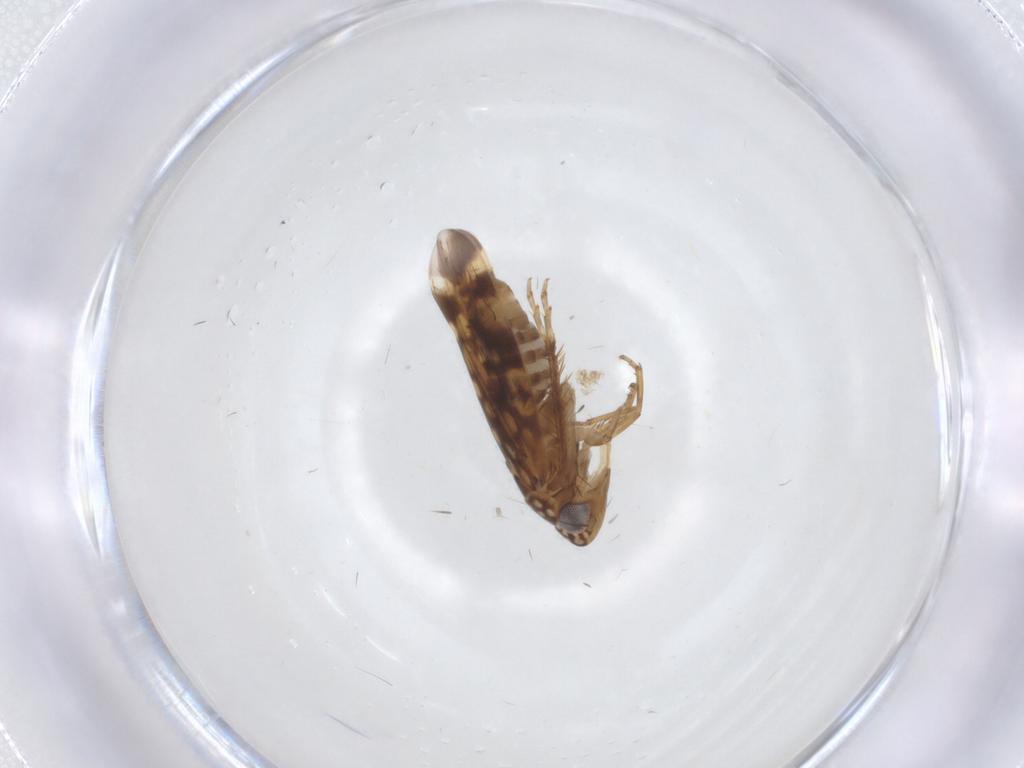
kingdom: Animalia
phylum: Arthropoda
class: Insecta
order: Hemiptera
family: Cicadellidae
